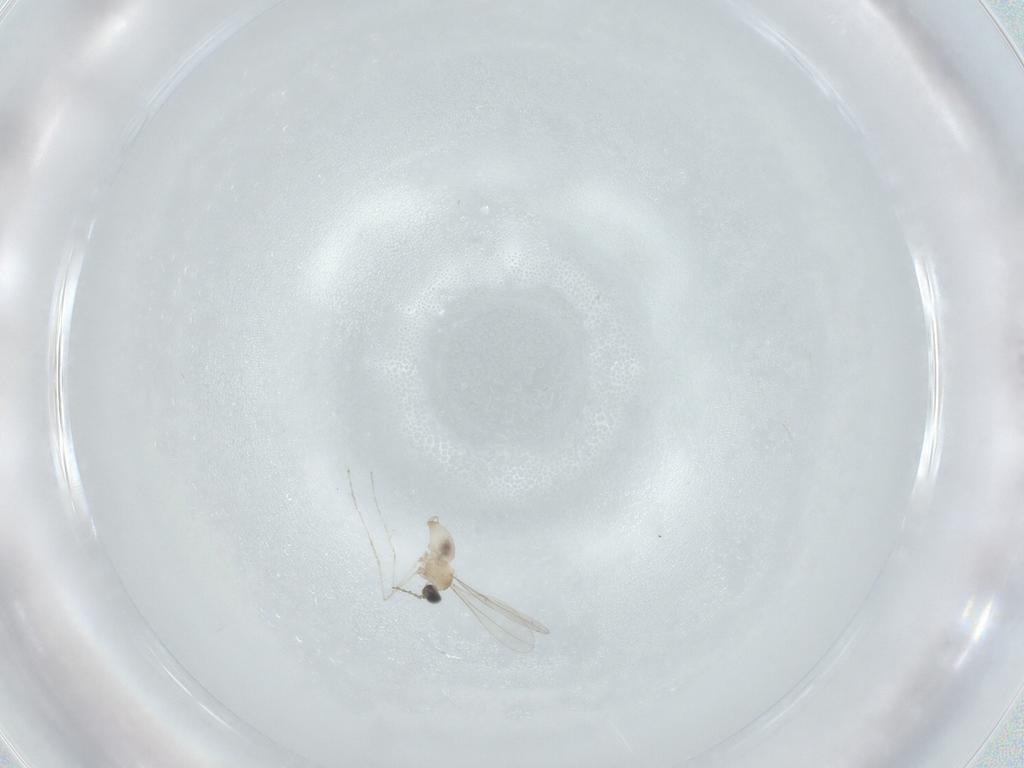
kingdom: Animalia
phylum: Arthropoda
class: Insecta
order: Diptera
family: Cecidomyiidae
